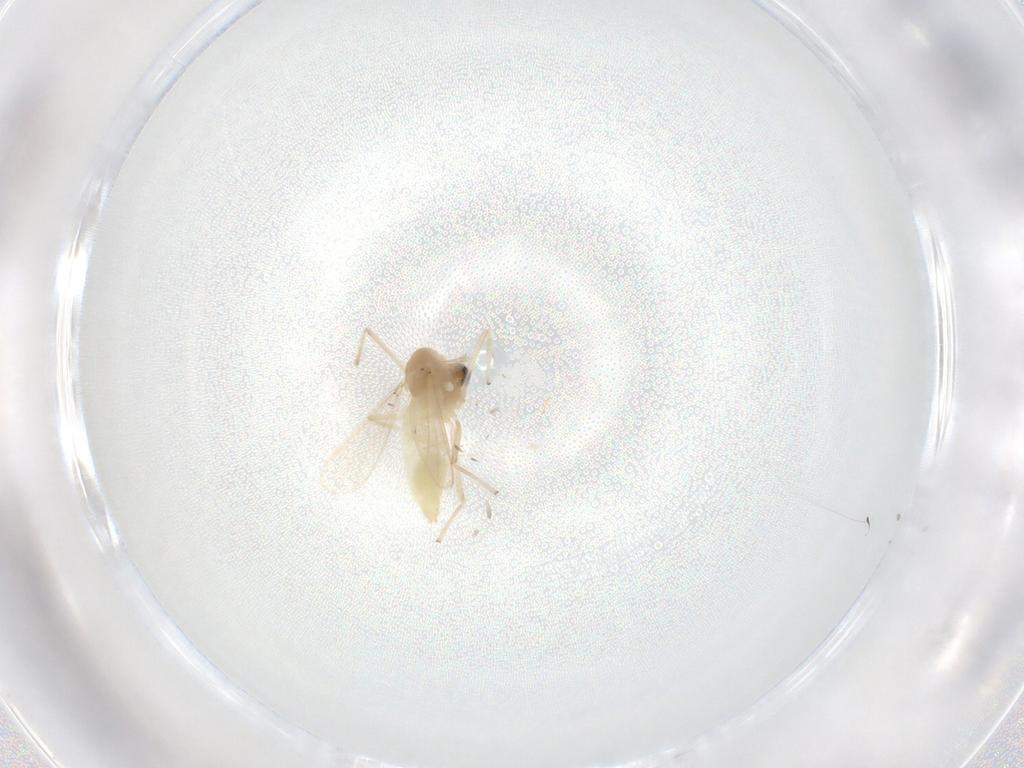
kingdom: Animalia
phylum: Arthropoda
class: Insecta
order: Diptera
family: Chironomidae
